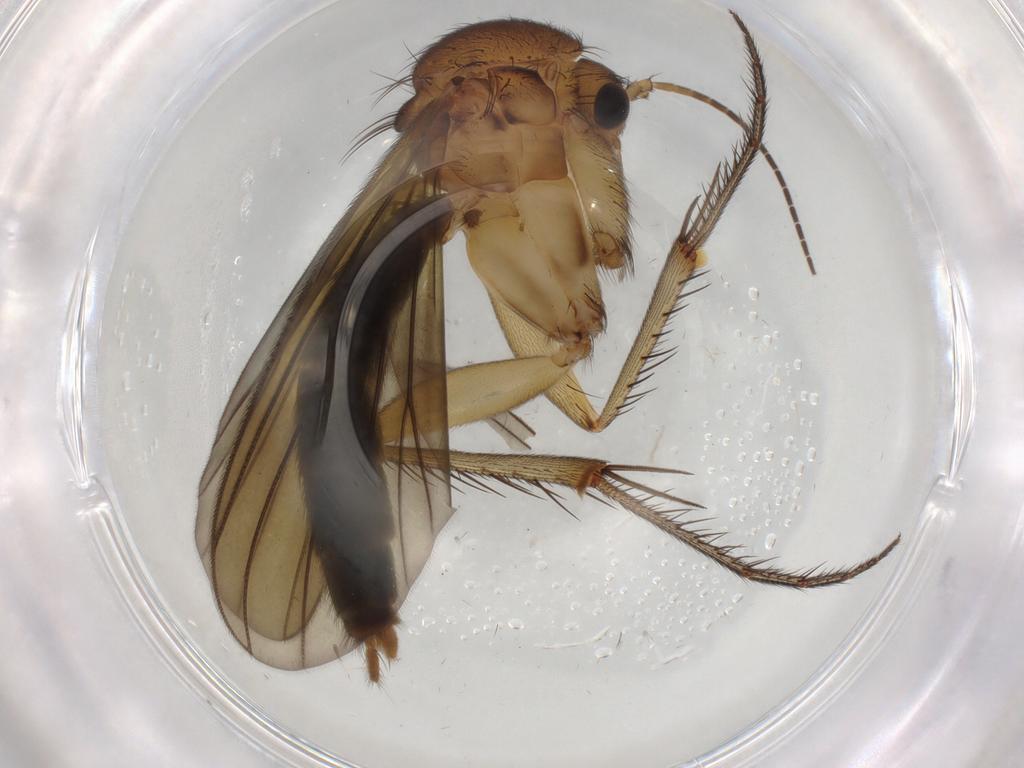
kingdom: Animalia
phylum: Arthropoda
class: Insecta
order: Diptera
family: Mycetophilidae
